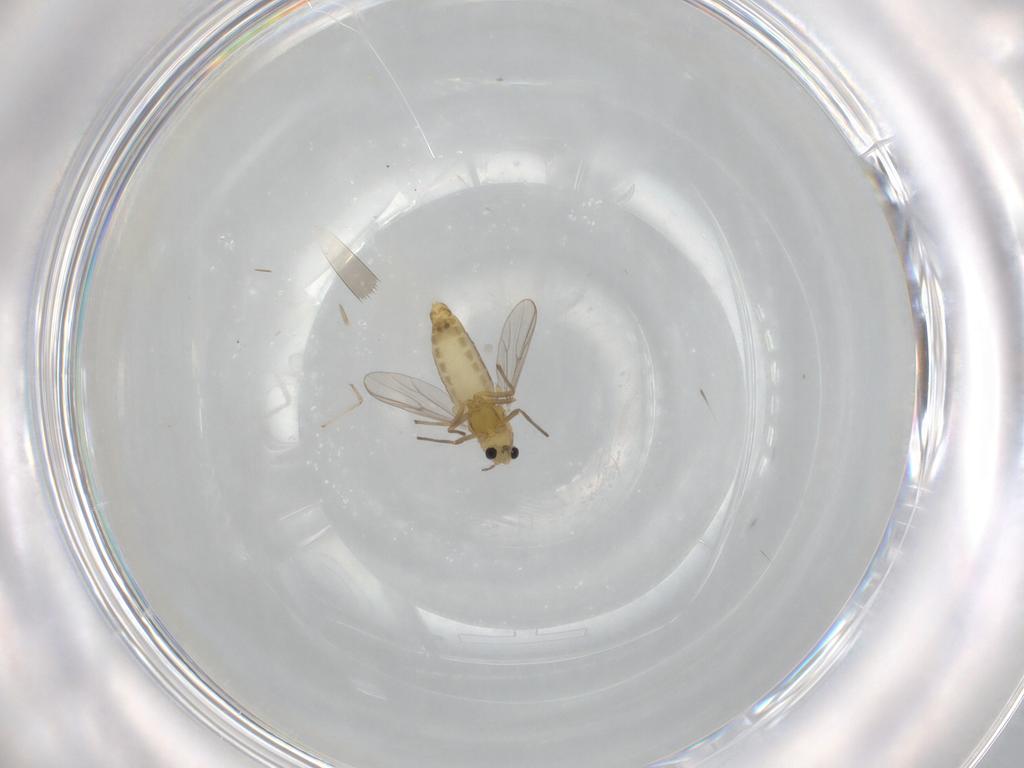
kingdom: Animalia
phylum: Arthropoda
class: Insecta
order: Diptera
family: Chironomidae
